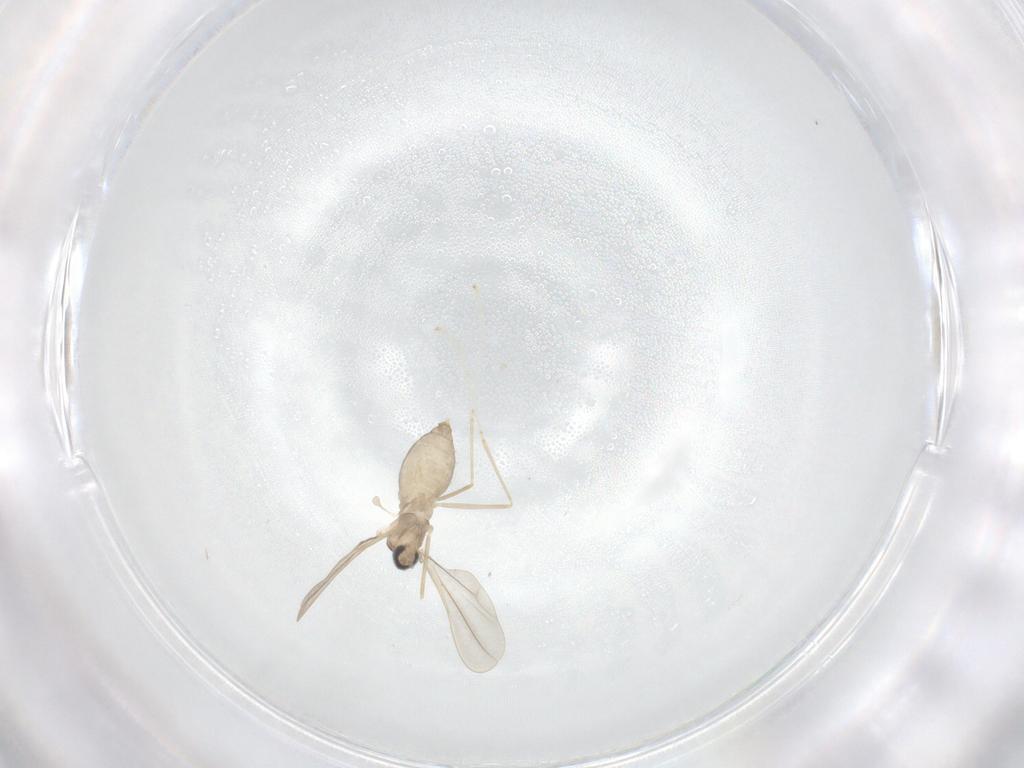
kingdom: Animalia
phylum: Arthropoda
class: Insecta
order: Diptera
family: Cecidomyiidae
